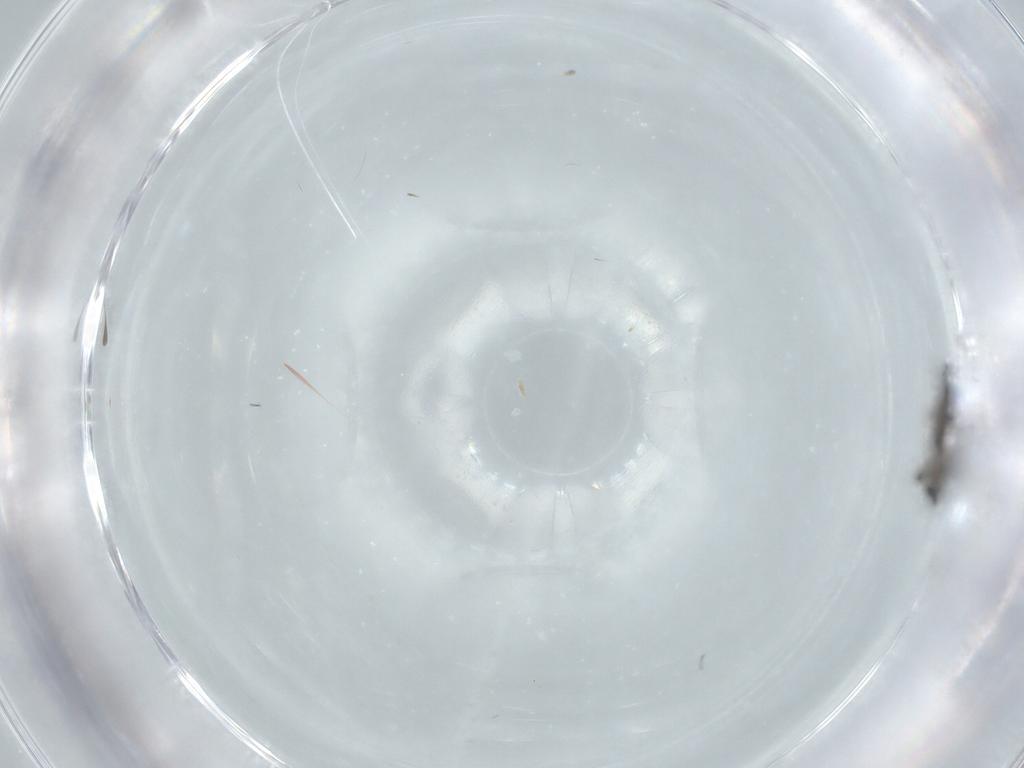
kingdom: Animalia
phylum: Arthropoda
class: Insecta
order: Diptera
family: Sciaridae
